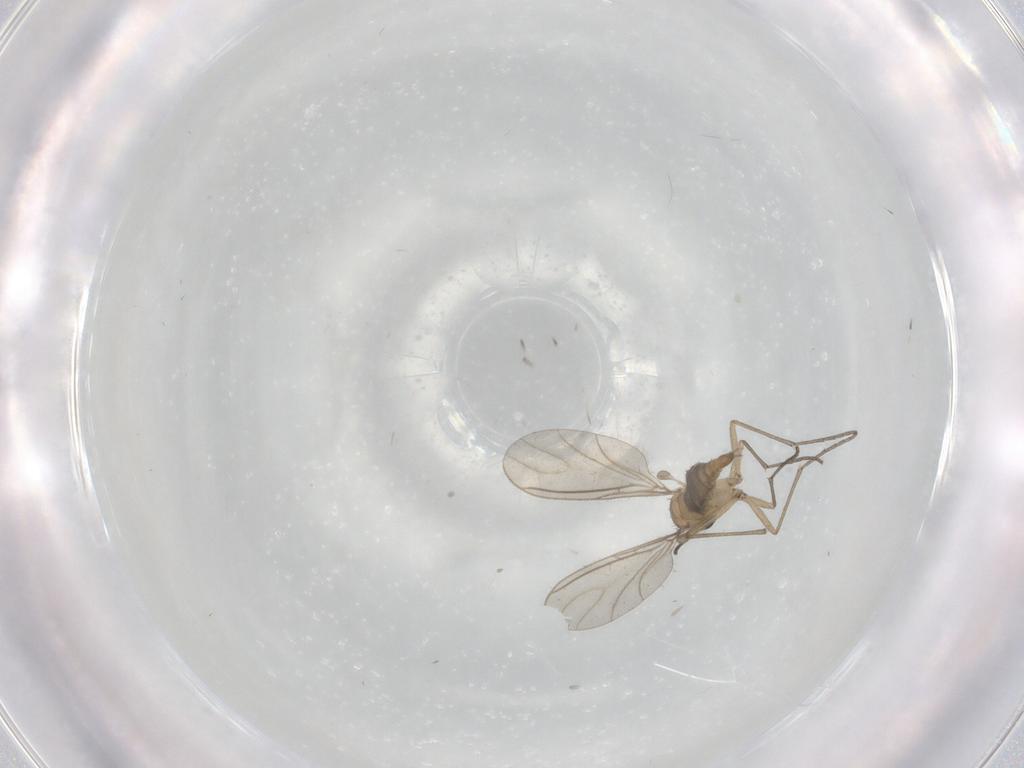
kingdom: Animalia
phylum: Arthropoda
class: Insecta
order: Diptera
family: Sciaridae
